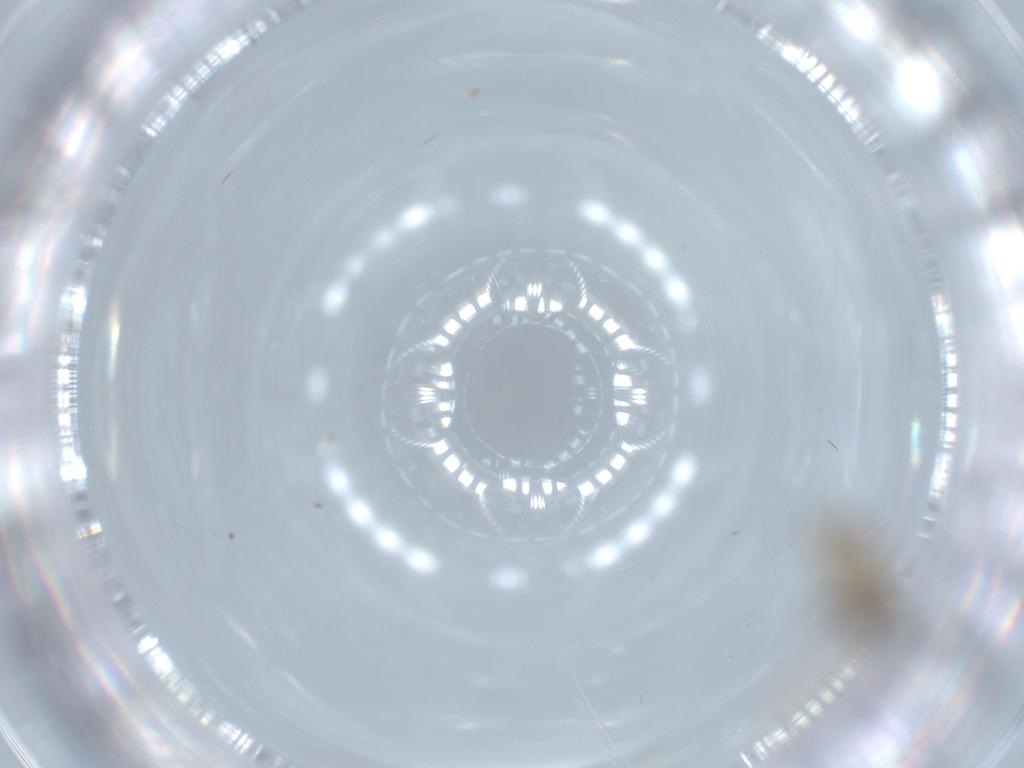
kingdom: Animalia
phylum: Arthropoda
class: Insecta
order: Diptera
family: Psychodidae
